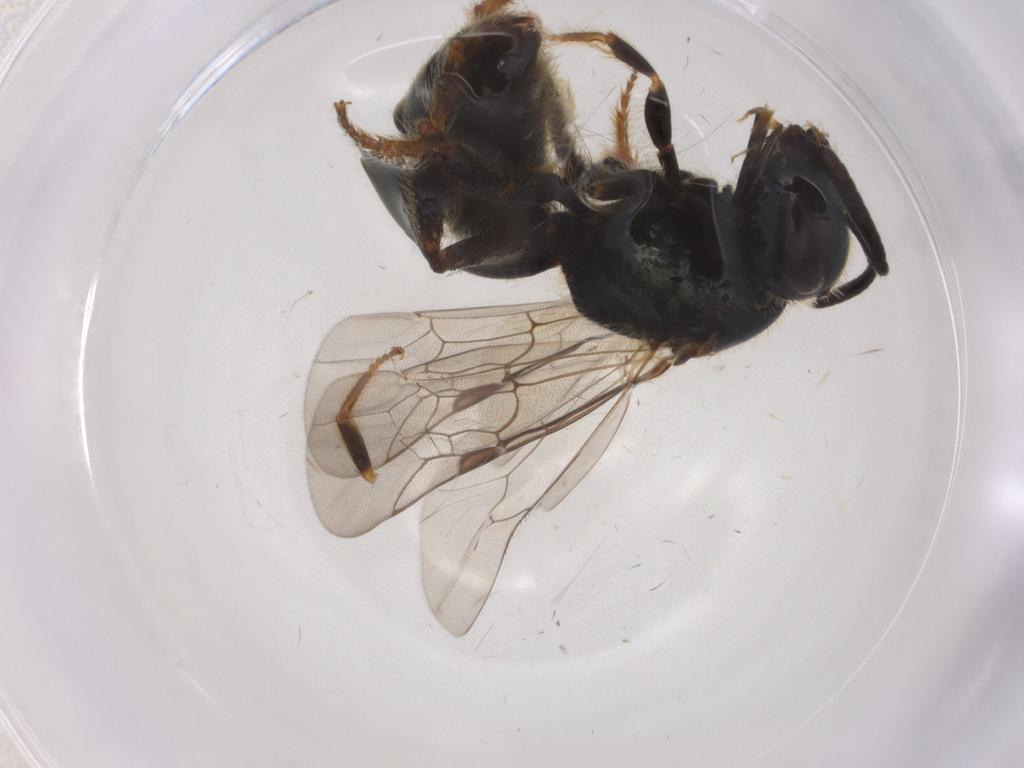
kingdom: Animalia
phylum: Arthropoda
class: Insecta
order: Hymenoptera
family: Halictidae
